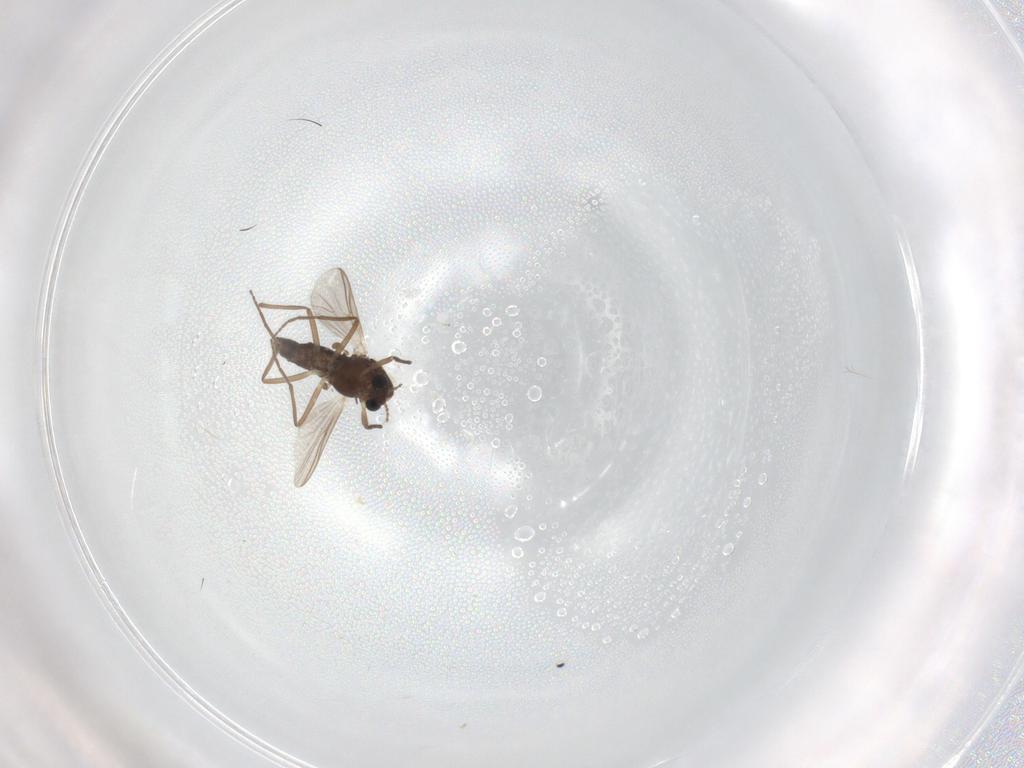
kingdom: Animalia
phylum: Arthropoda
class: Insecta
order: Diptera
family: Chironomidae
